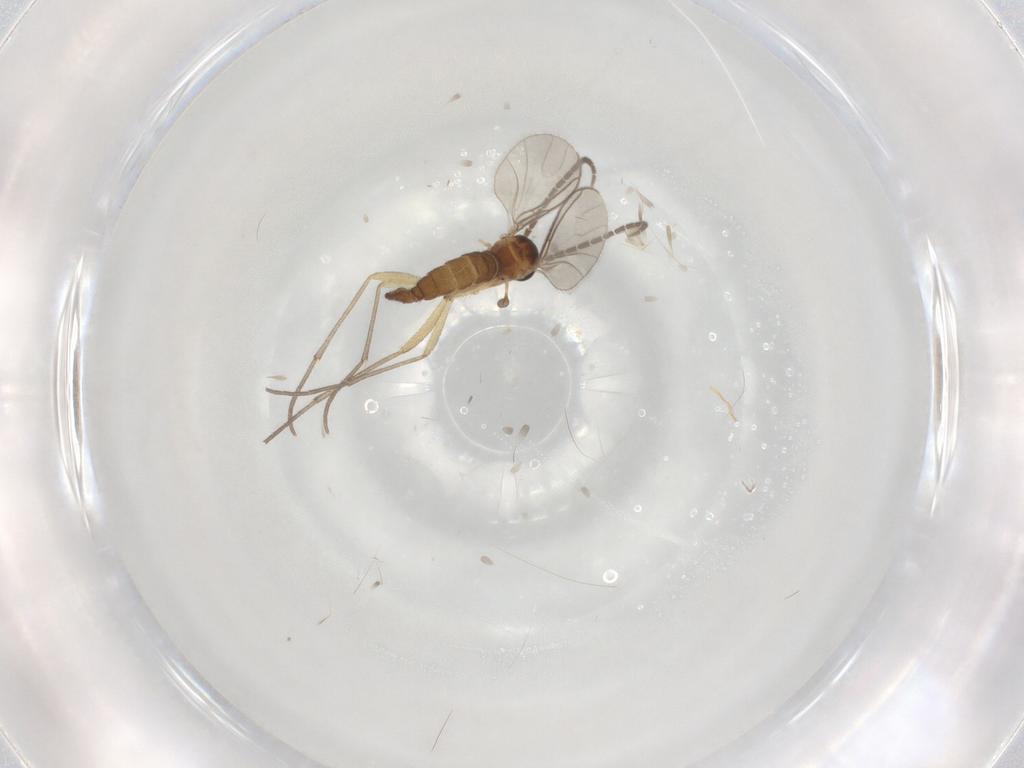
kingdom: Animalia
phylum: Arthropoda
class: Insecta
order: Diptera
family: Sciaridae
